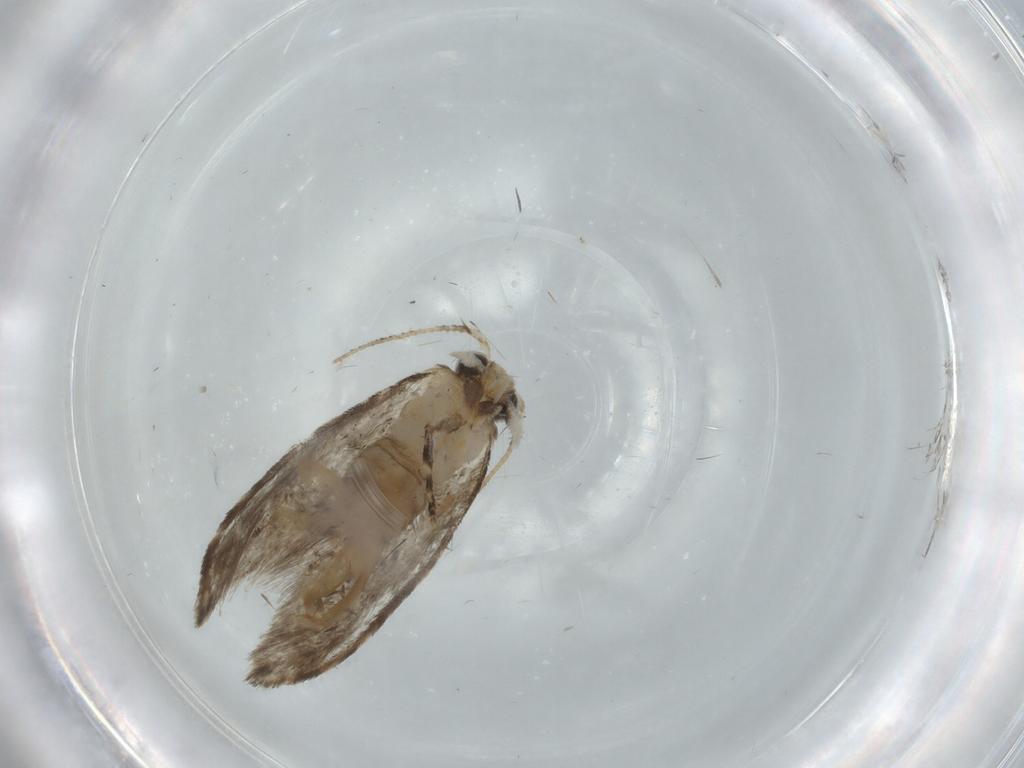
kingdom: Animalia
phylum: Arthropoda
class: Insecta
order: Lepidoptera
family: Tineidae
